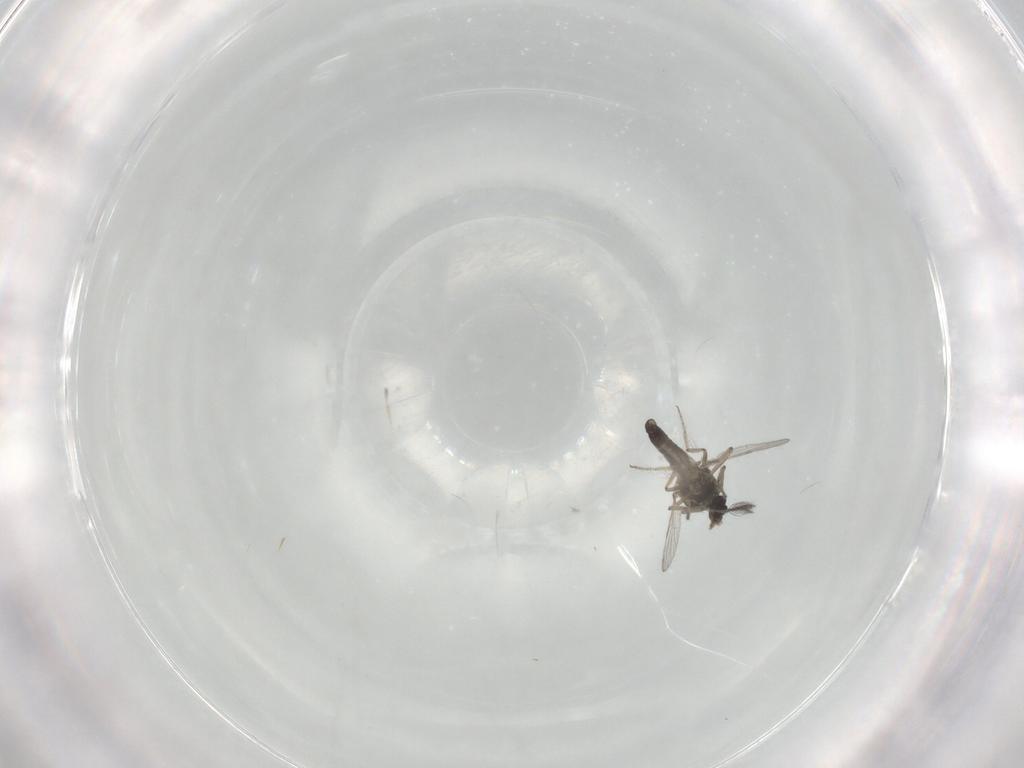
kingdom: Animalia
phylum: Arthropoda
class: Insecta
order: Diptera
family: Ceratopogonidae
